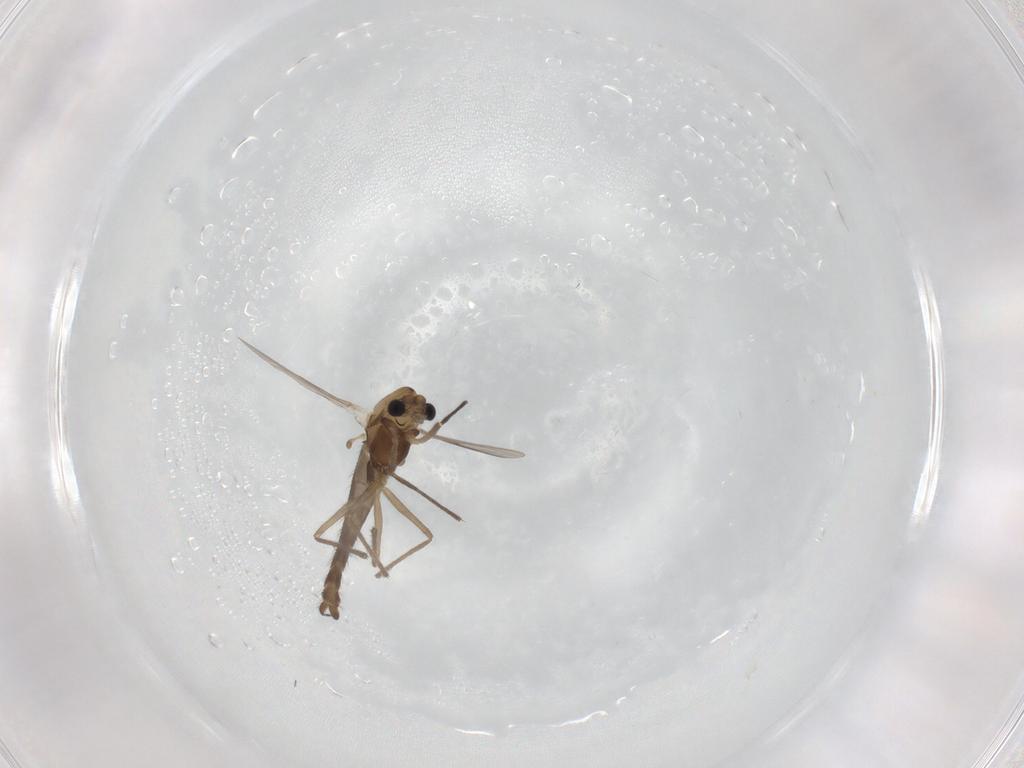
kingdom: Animalia
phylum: Arthropoda
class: Insecta
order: Diptera
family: Chironomidae
